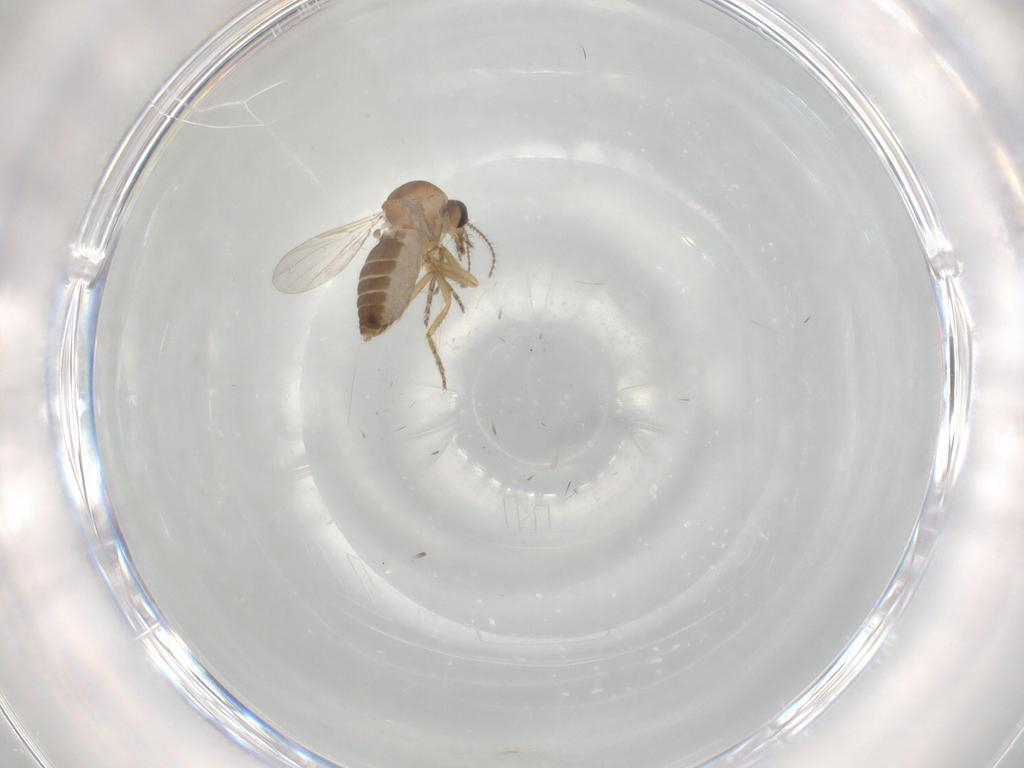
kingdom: Animalia
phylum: Arthropoda
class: Insecta
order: Diptera
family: Ceratopogonidae
